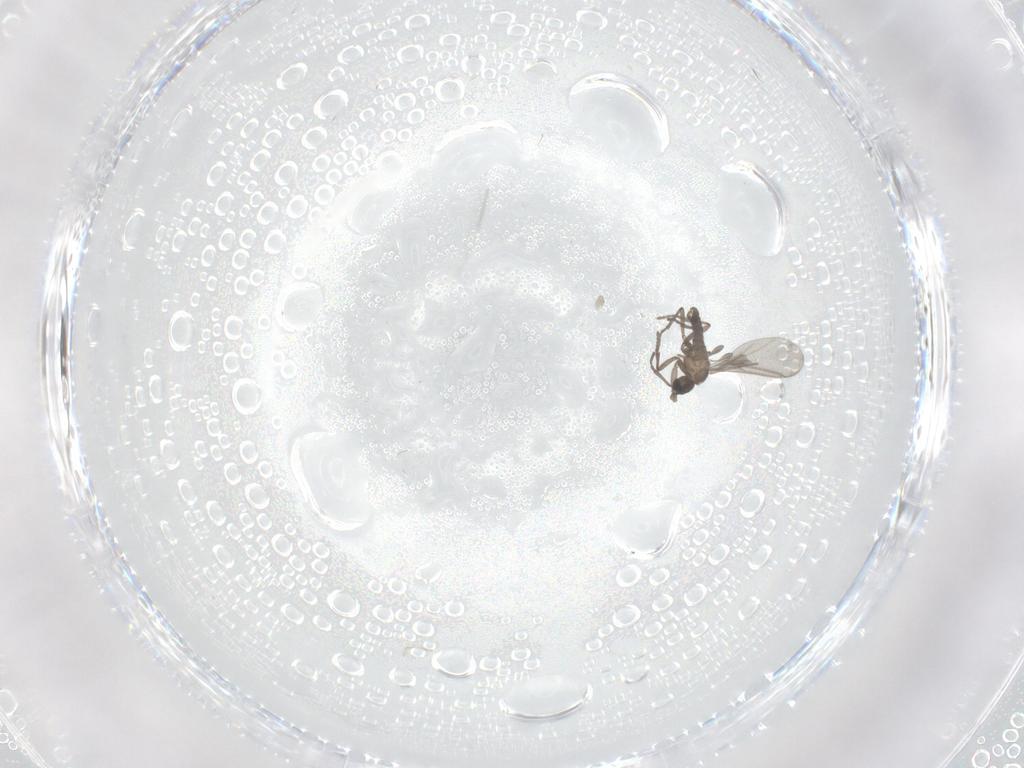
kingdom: Animalia
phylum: Arthropoda
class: Insecta
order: Diptera
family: Sciaridae
